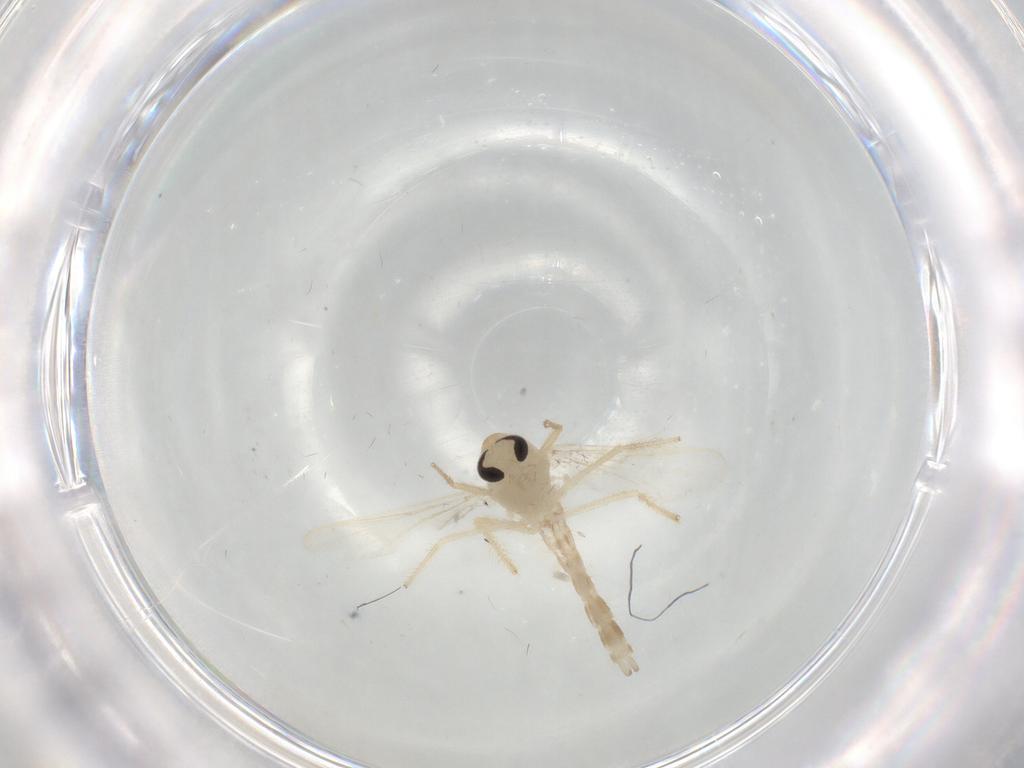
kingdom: Animalia
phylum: Arthropoda
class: Insecta
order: Diptera
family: Chironomidae
